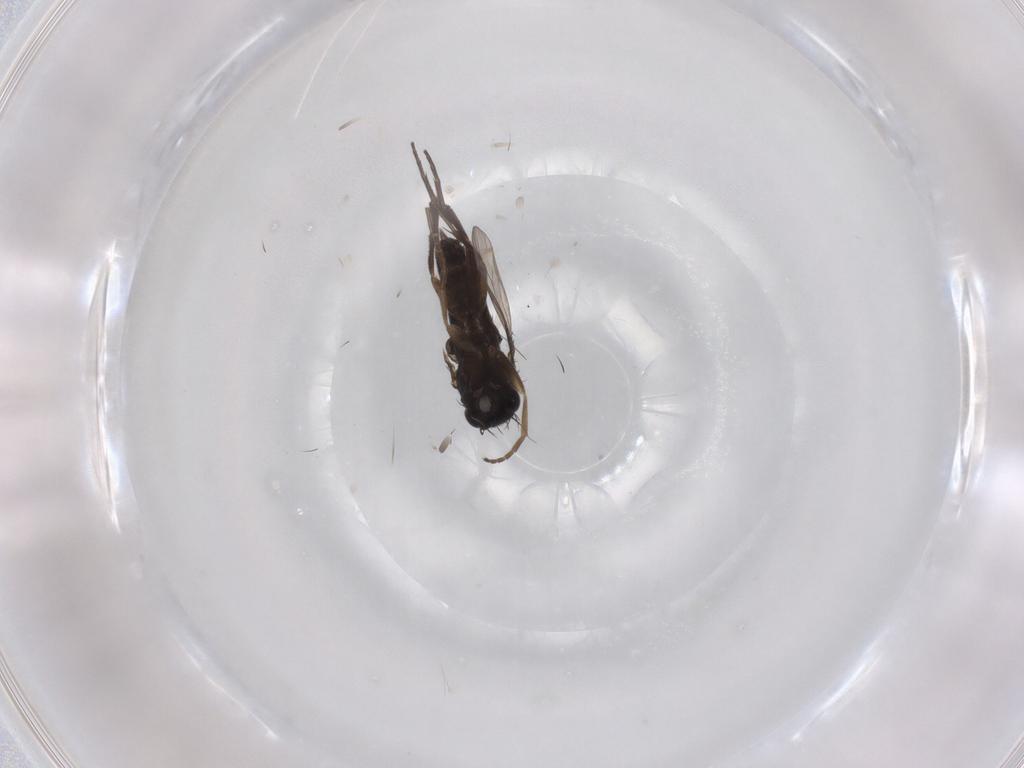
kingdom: Animalia
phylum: Arthropoda
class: Insecta
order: Diptera
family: Phoridae
